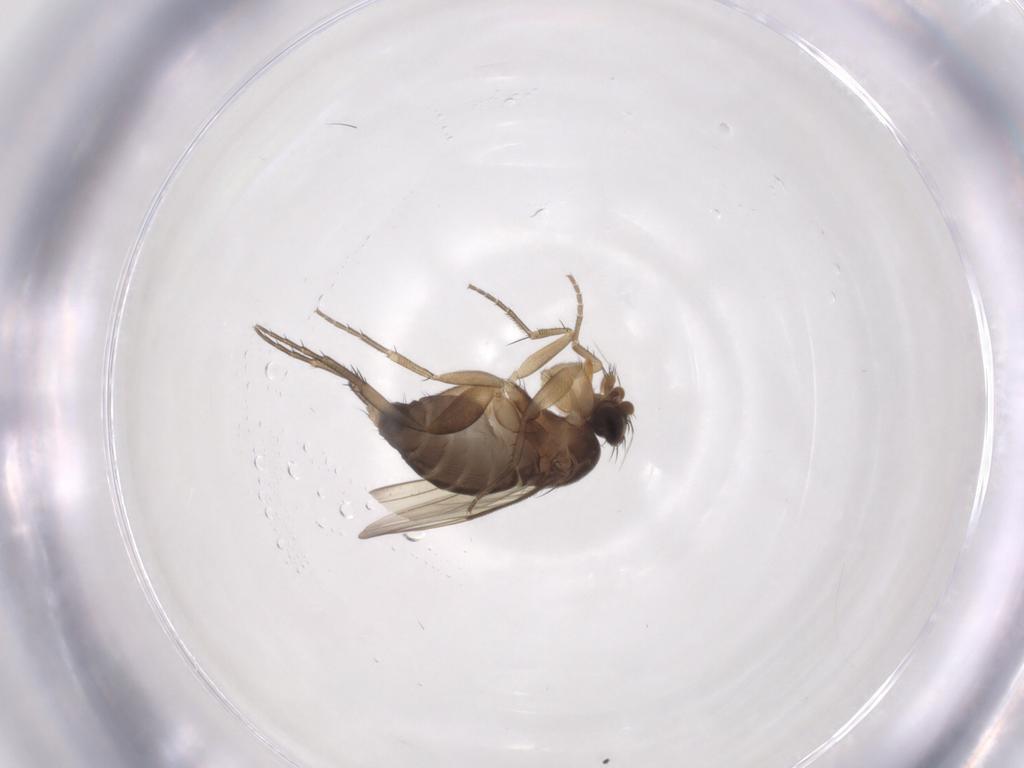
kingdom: Animalia
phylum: Arthropoda
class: Insecta
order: Diptera
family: Phoridae
